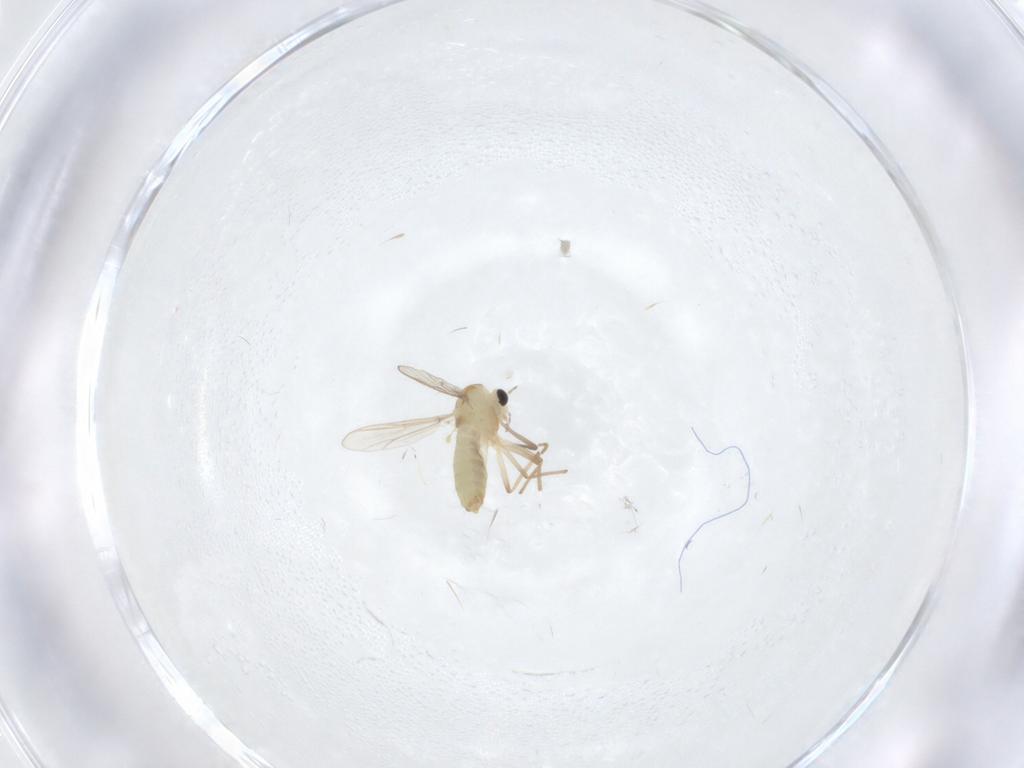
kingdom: Animalia
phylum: Arthropoda
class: Insecta
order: Diptera
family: Chironomidae
